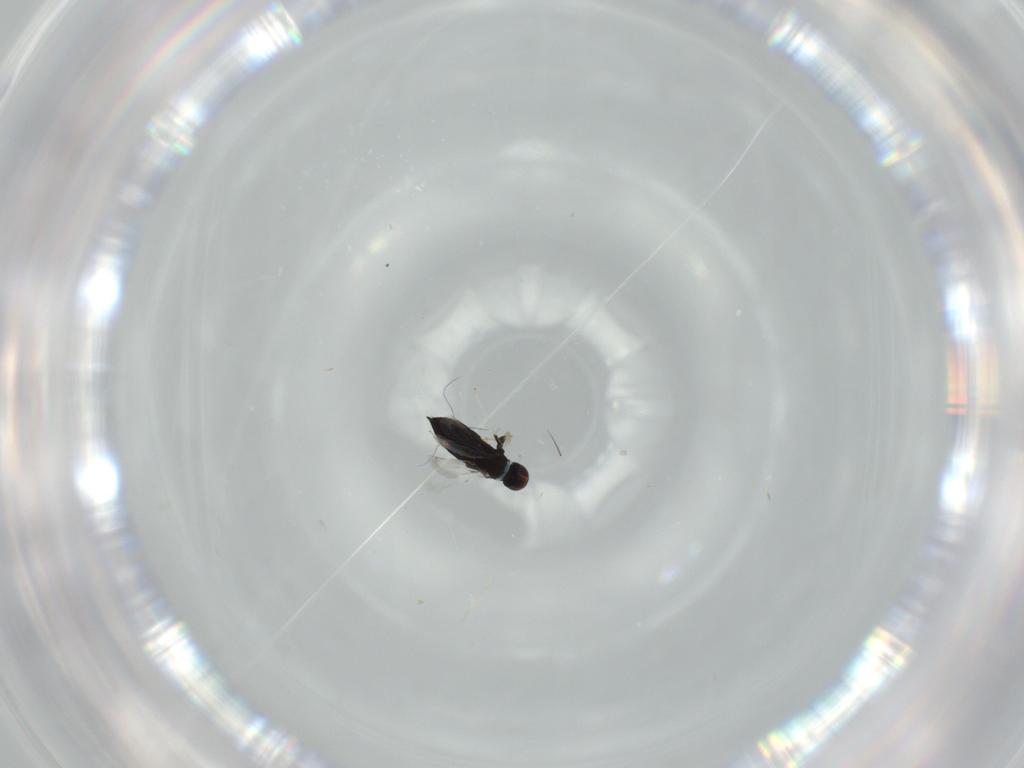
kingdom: Animalia
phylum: Arthropoda
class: Insecta
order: Hymenoptera
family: Signiphoridae
